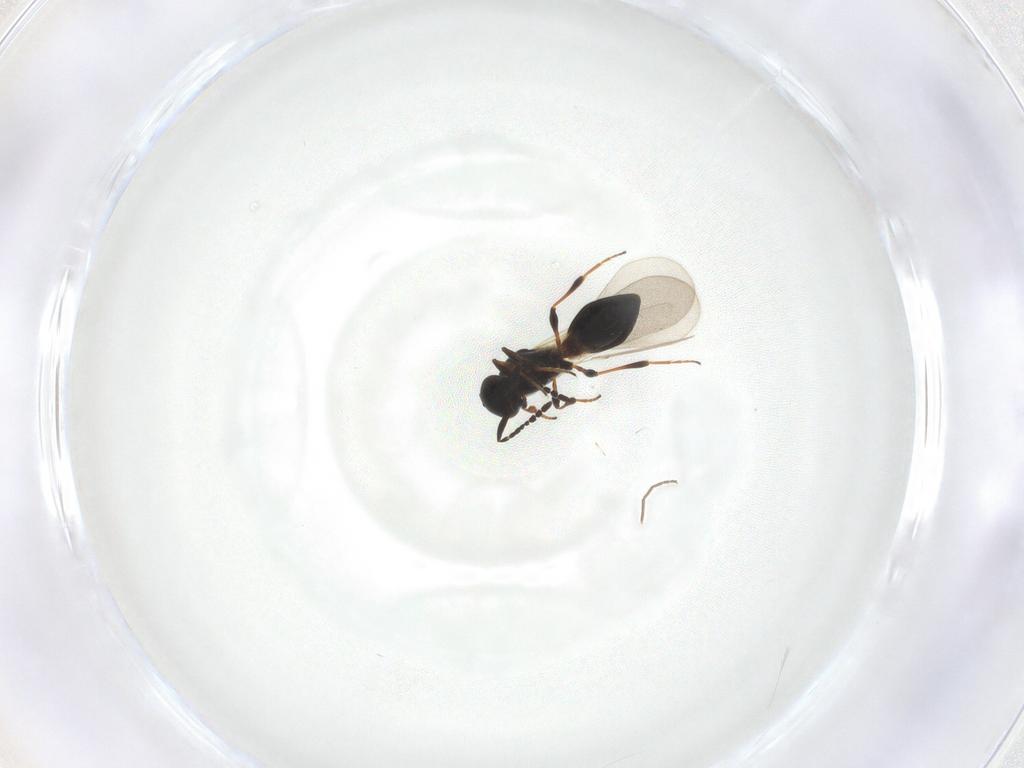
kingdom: Animalia
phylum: Arthropoda
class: Insecta
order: Hymenoptera
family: Platygastridae
